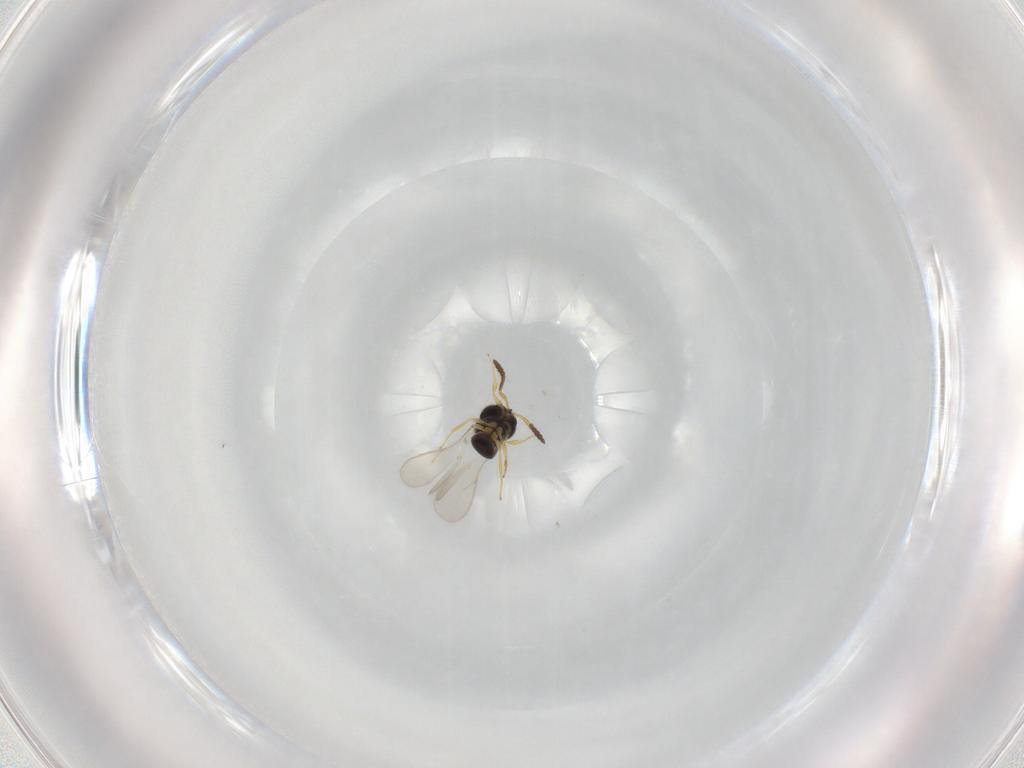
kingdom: Animalia
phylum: Arthropoda
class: Insecta
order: Hymenoptera
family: Scelionidae
